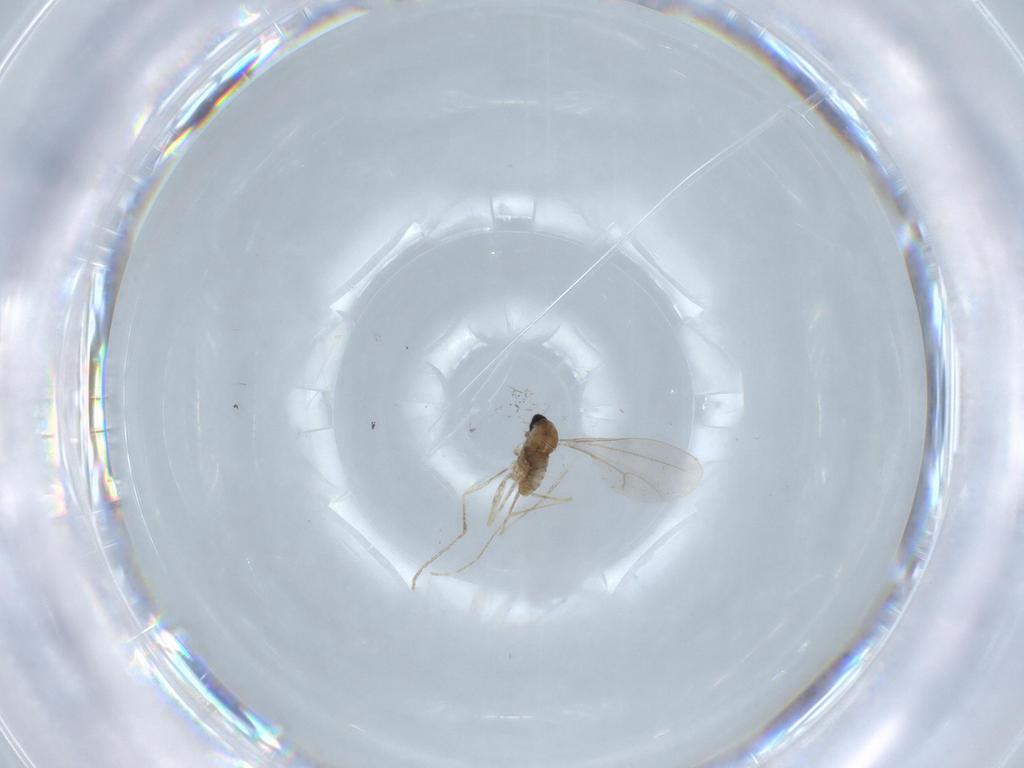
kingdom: Animalia
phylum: Arthropoda
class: Insecta
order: Diptera
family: Cecidomyiidae
